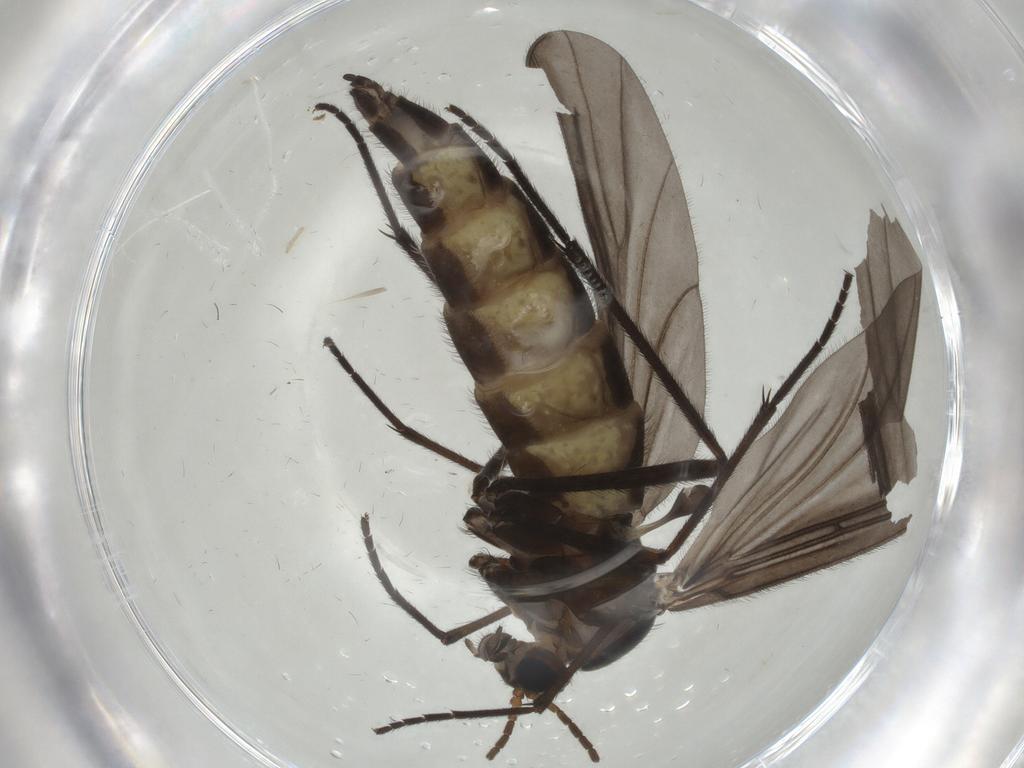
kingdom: Animalia
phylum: Arthropoda
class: Insecta
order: Diptera
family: Sciaridae
